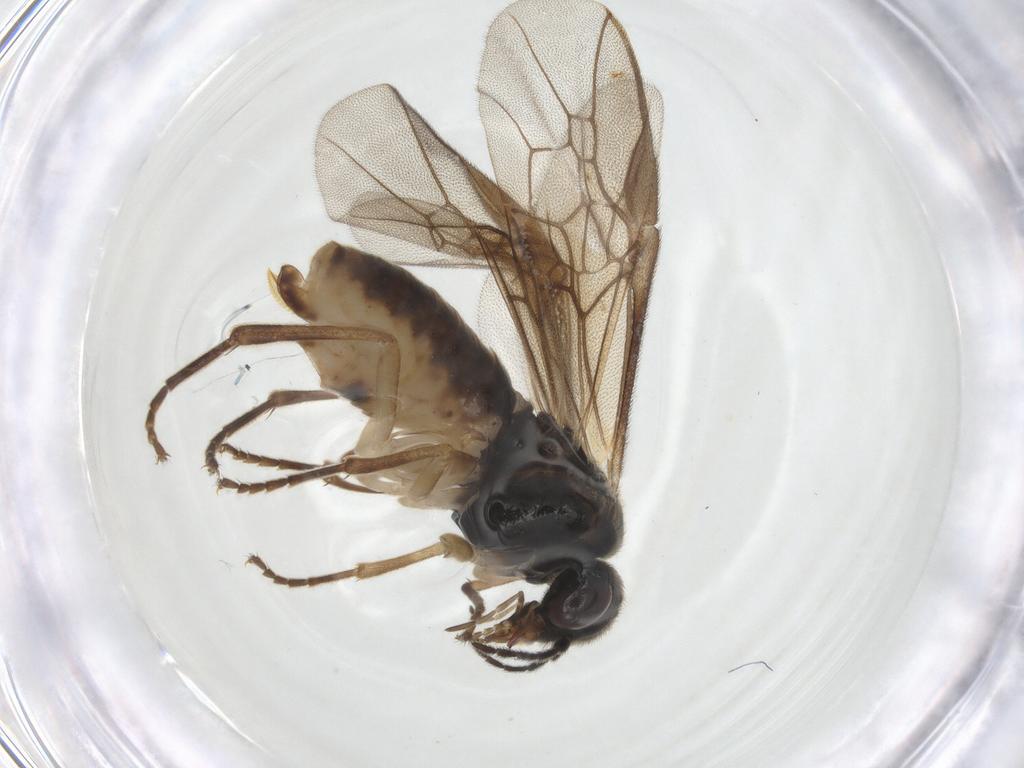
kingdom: Animalia
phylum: Arthropoda
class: Insecta
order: Hymenoptera
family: Pergidae
